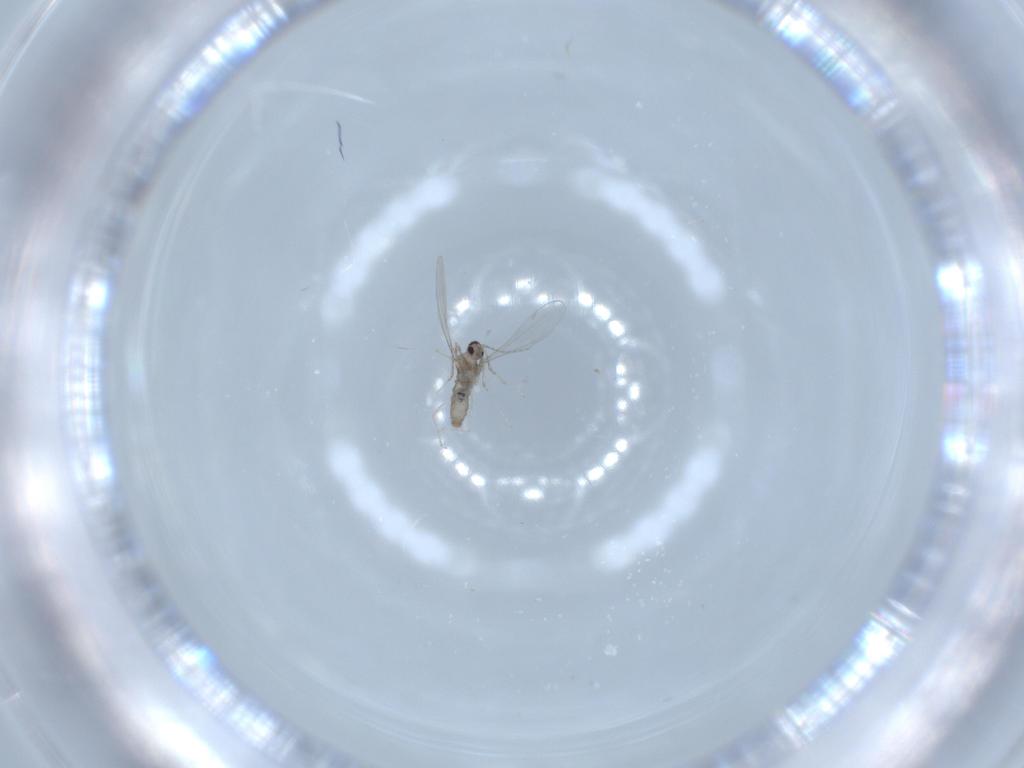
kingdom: Animalia
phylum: Arthropoda
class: Insecta
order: Diptera
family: Cecidomyiidae
